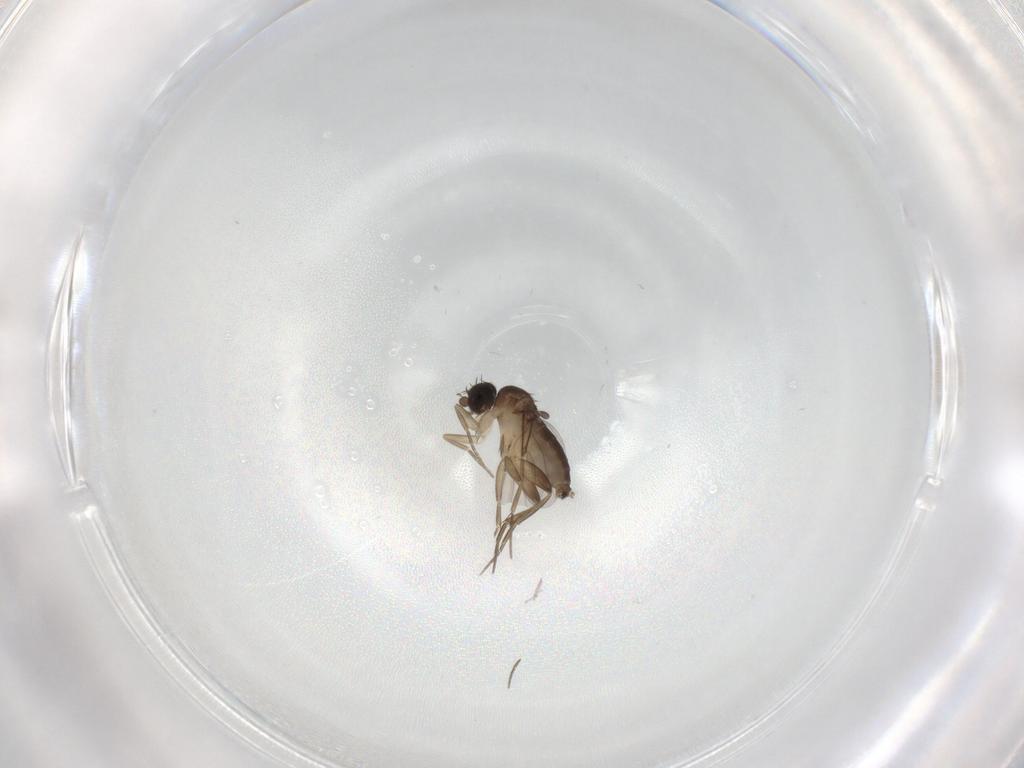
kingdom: Animalia
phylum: Arthropoda
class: Insecta
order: Diptera
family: Phoridae
